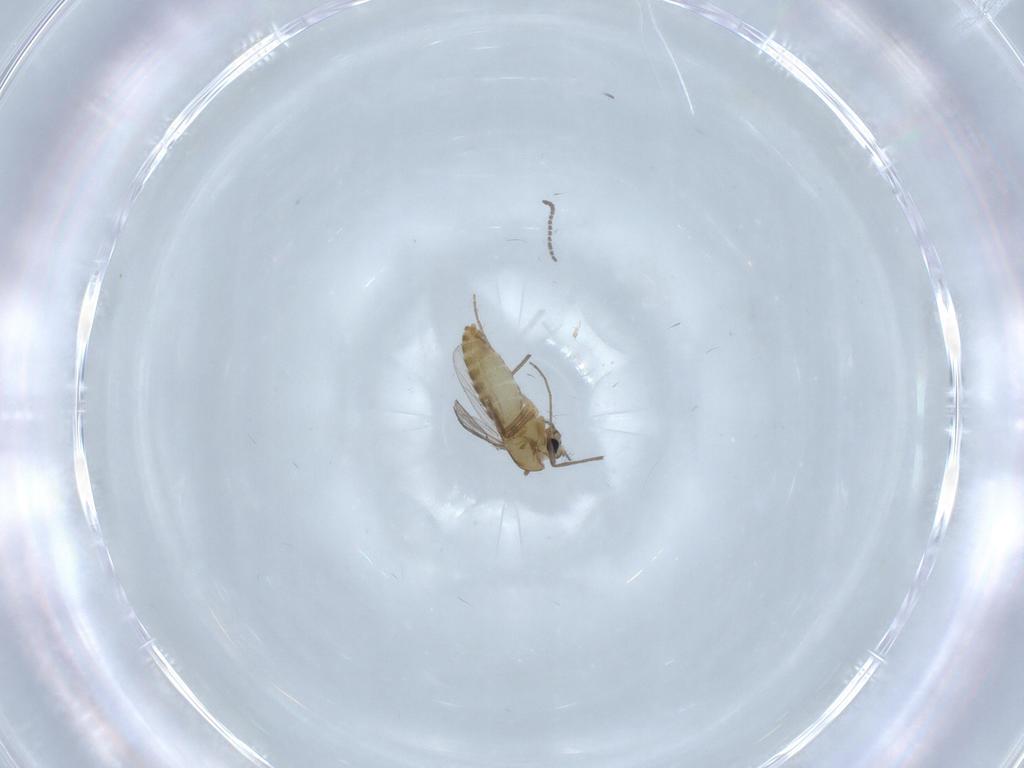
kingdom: Animalia
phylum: Arthropoda
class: Insecta
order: Diptera
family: Chironomidae
